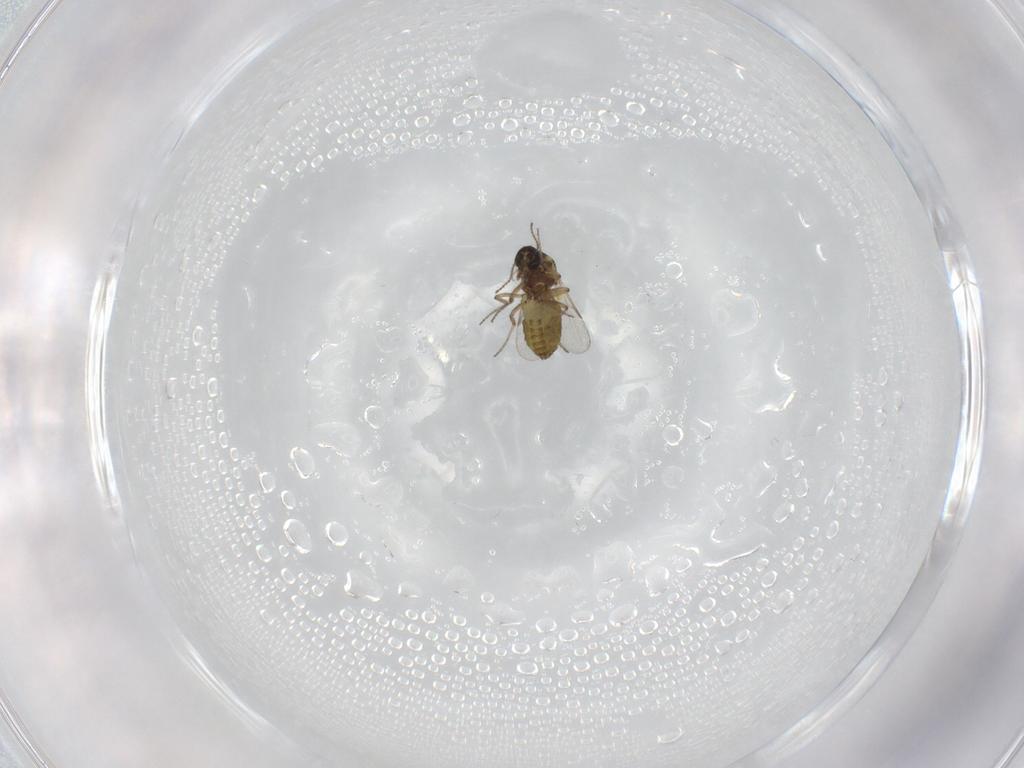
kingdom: Animalia
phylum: Arthropoda
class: Insecta
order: Diptera
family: Ceratopogonidae
